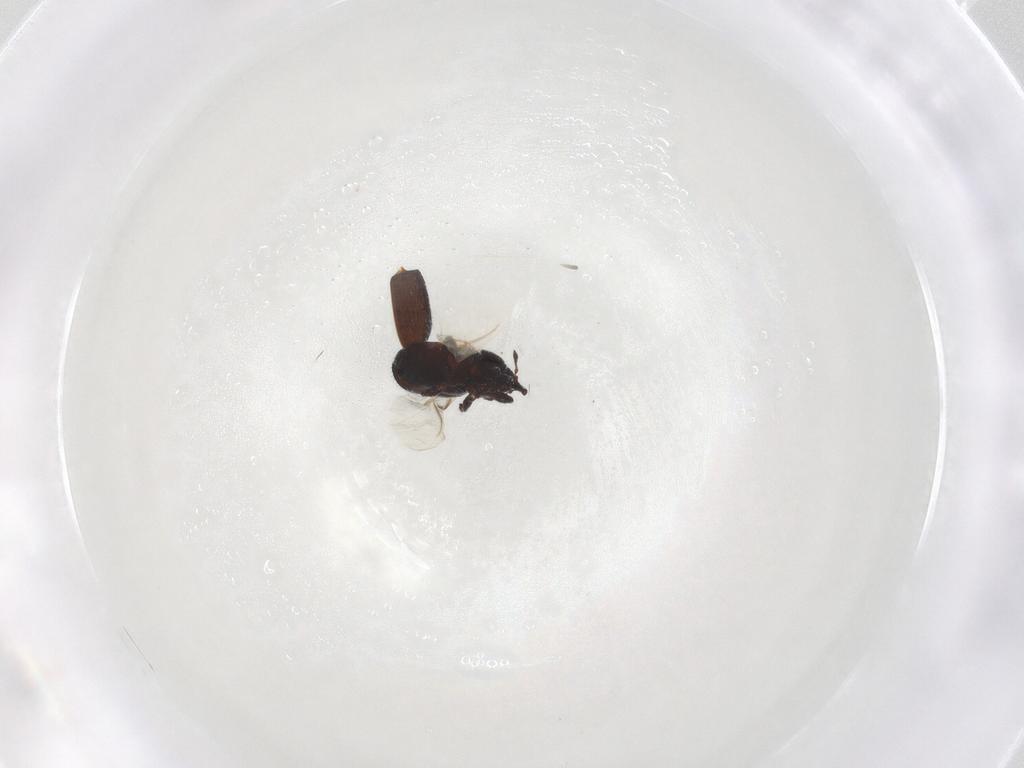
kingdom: Animalia
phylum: Arthropoda
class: Insecta
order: Coleoptera
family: Curculionidae
